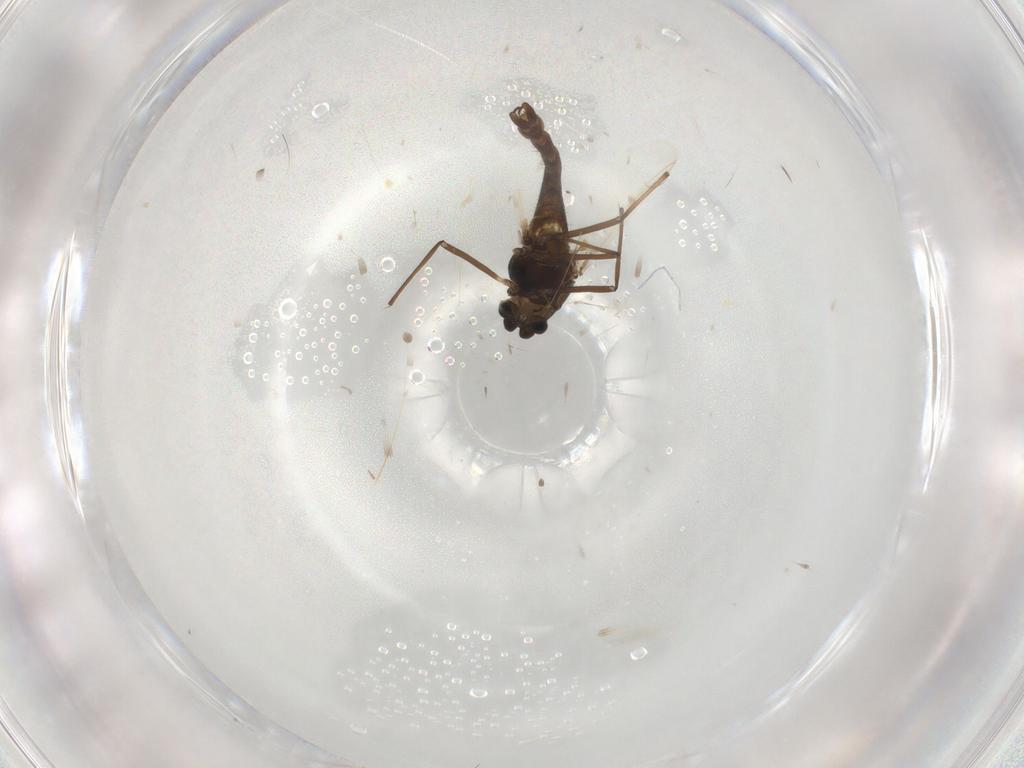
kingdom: Animalia
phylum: Arthropoda
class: Insecta
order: Diptera
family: Chironomidae
